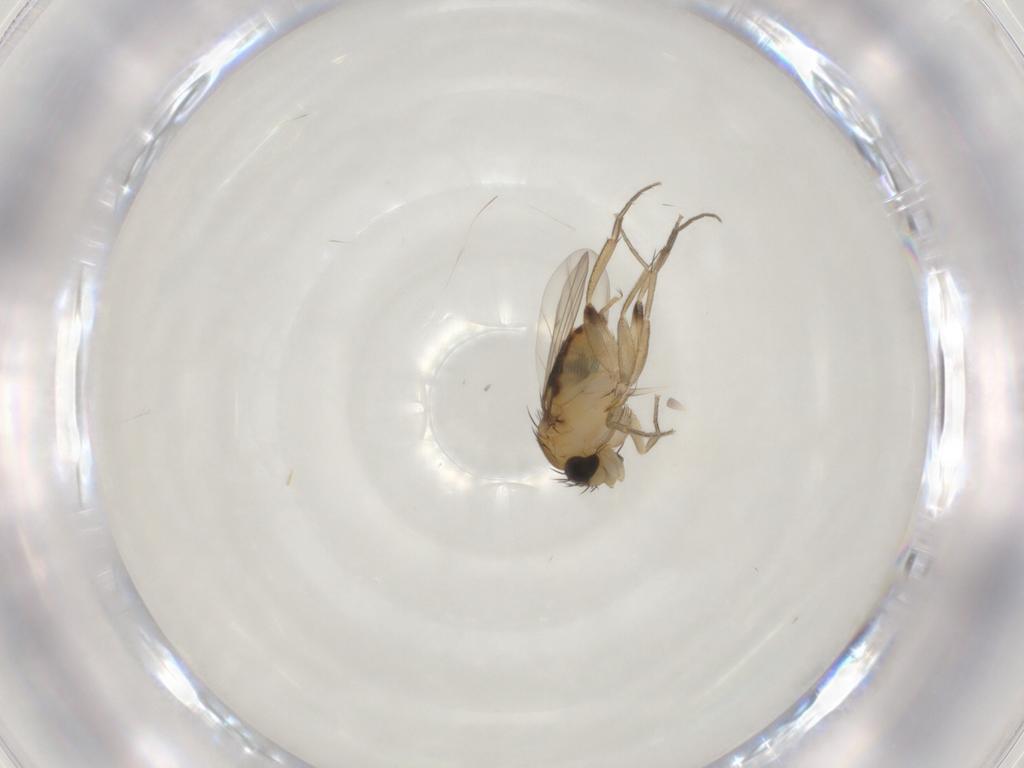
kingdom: Animalia
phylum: Arthropoda
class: Insecta
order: Diptera
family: Phoridae
